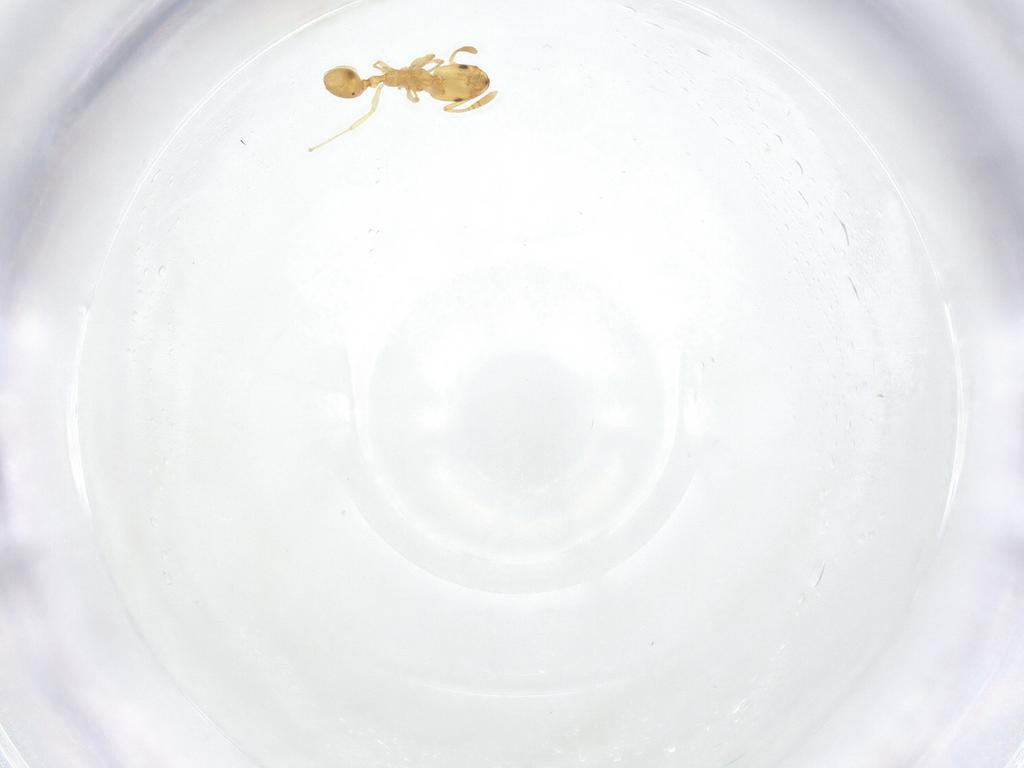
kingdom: Animalia
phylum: Arthropoda
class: Insecta
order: Hymenoptera
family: Formicidae
